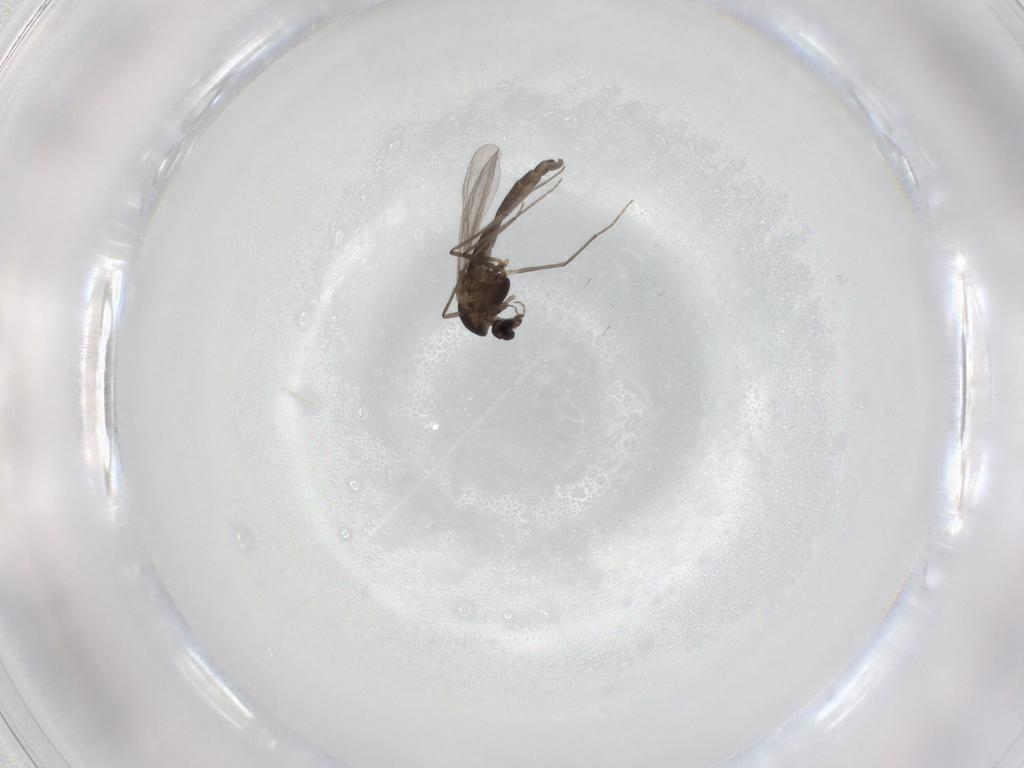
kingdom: Animalia
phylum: Arthropoda
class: Insecta
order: Diptera
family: Chironomidae
